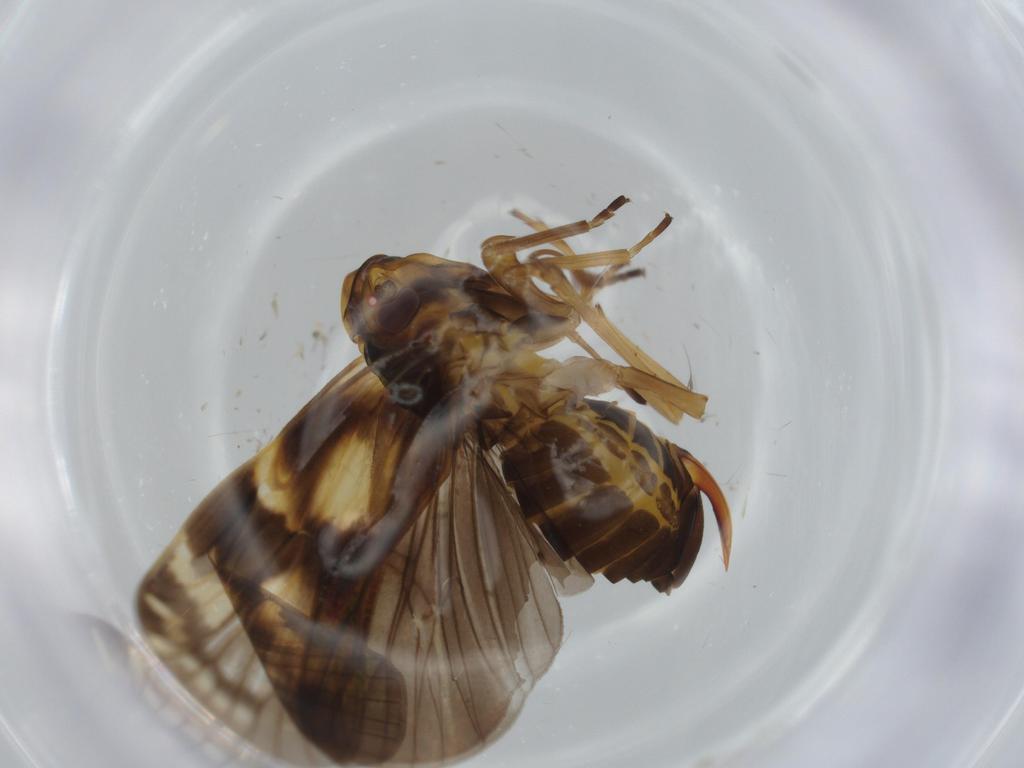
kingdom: Animalia
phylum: Arthropoda
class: Insecta
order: Hemiptera
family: Cixiidae
